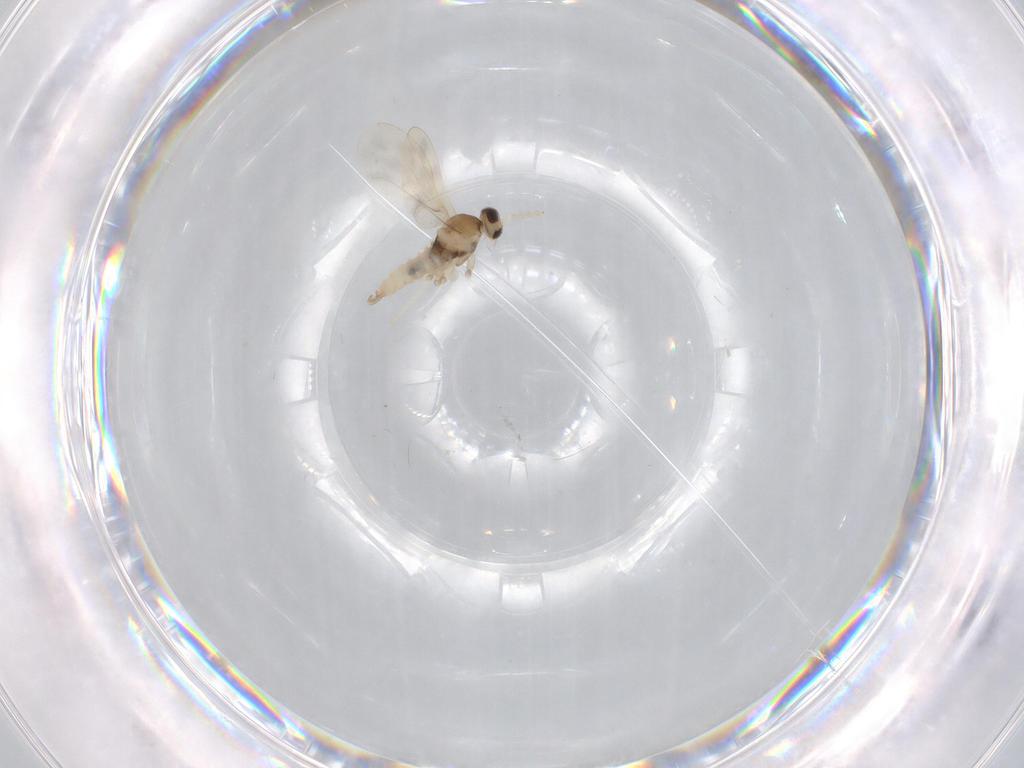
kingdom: Animalia
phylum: Arthropoda
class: Insecta
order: Diptera
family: Cecidomyiidae
